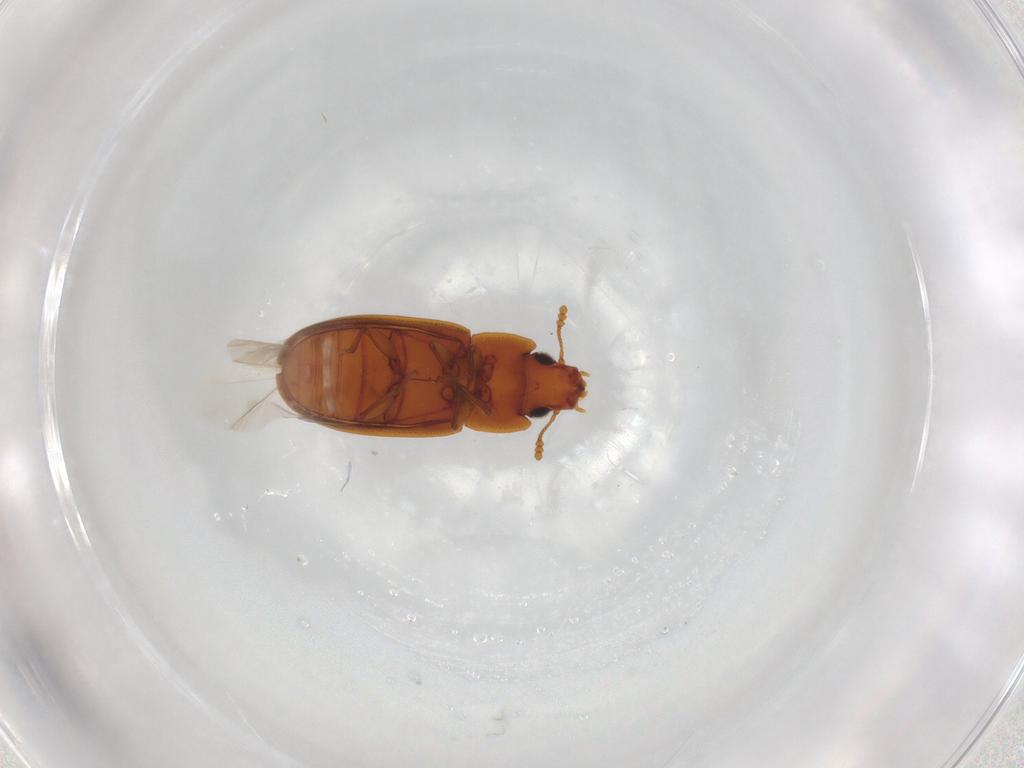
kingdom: Animalia
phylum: Arthropoda
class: Insecta
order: Coleoptera
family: Laemophloeidae
